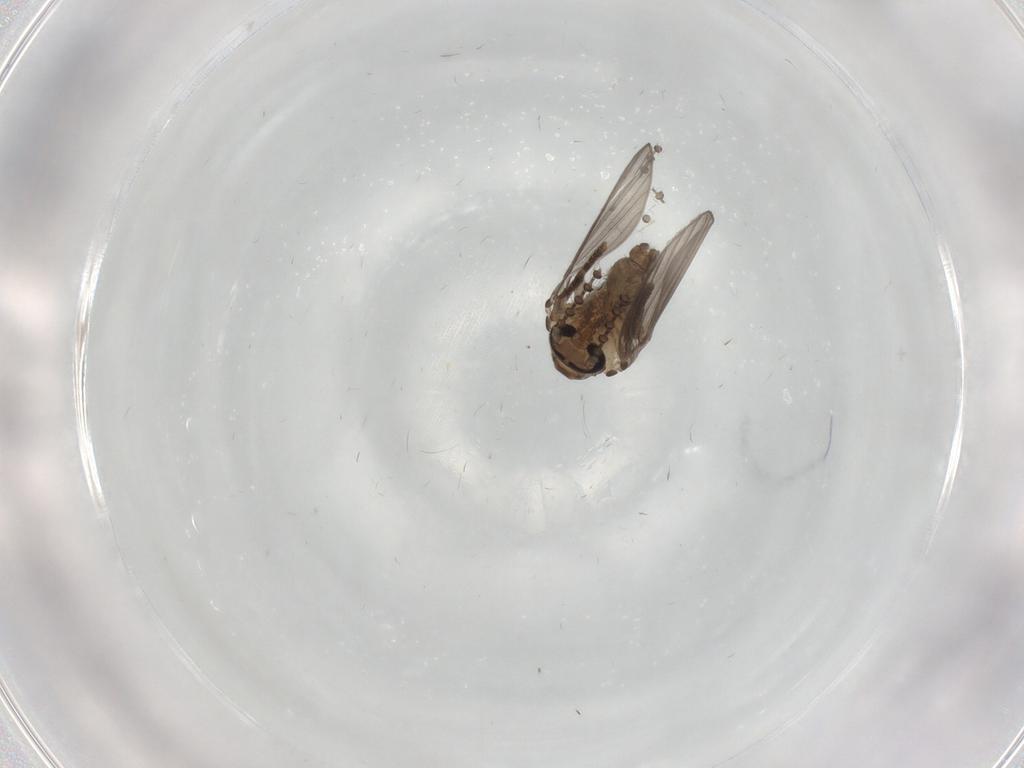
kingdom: Animalia
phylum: Arthropoda
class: Insecta
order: Diptera
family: Psychodidae
